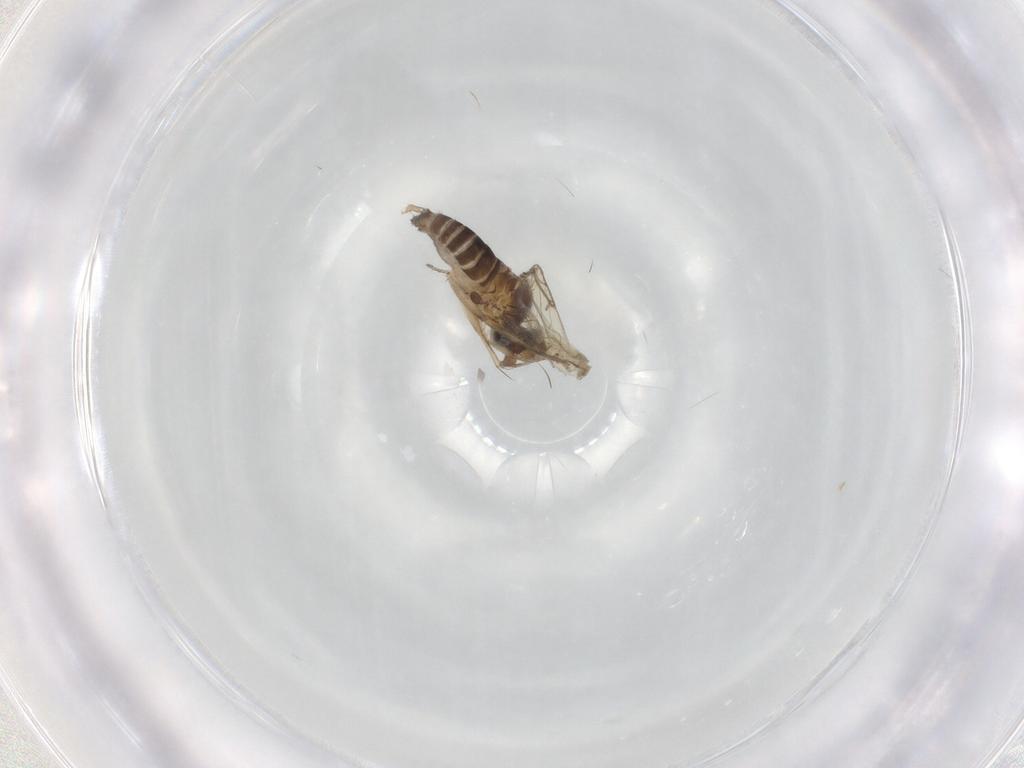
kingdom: Animalia
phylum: Arthropoda
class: Insecta
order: Diptera
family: Phoridae
